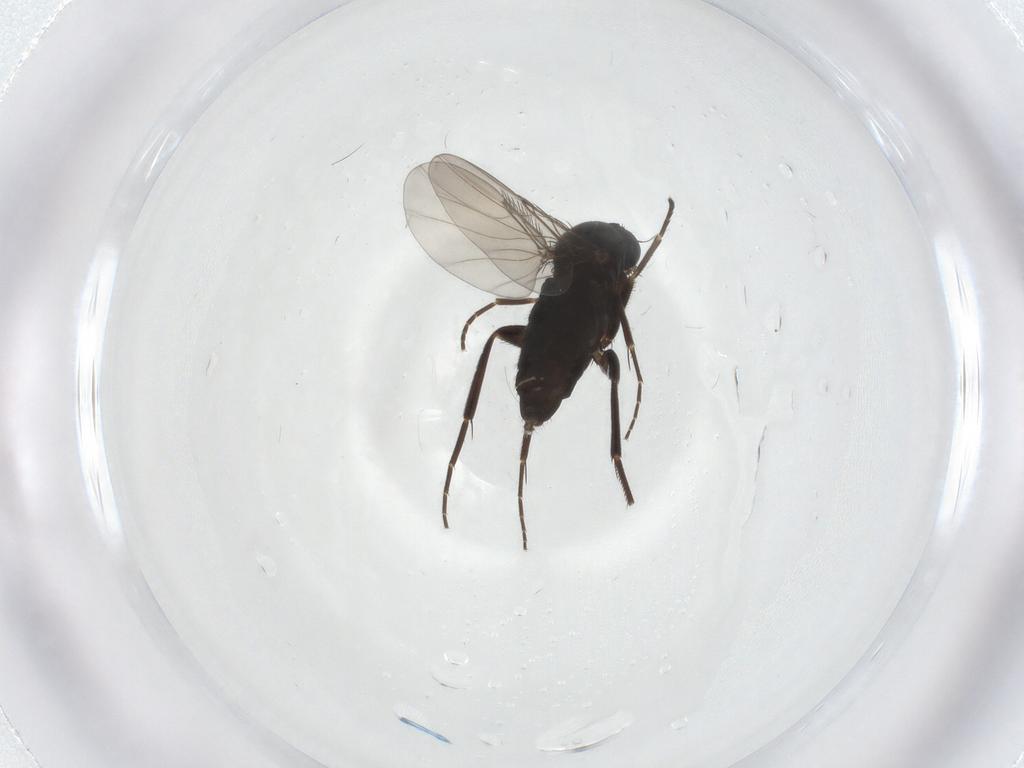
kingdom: Animalia
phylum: Arthropoda
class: Insecta
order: Diptera
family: Phoridae
